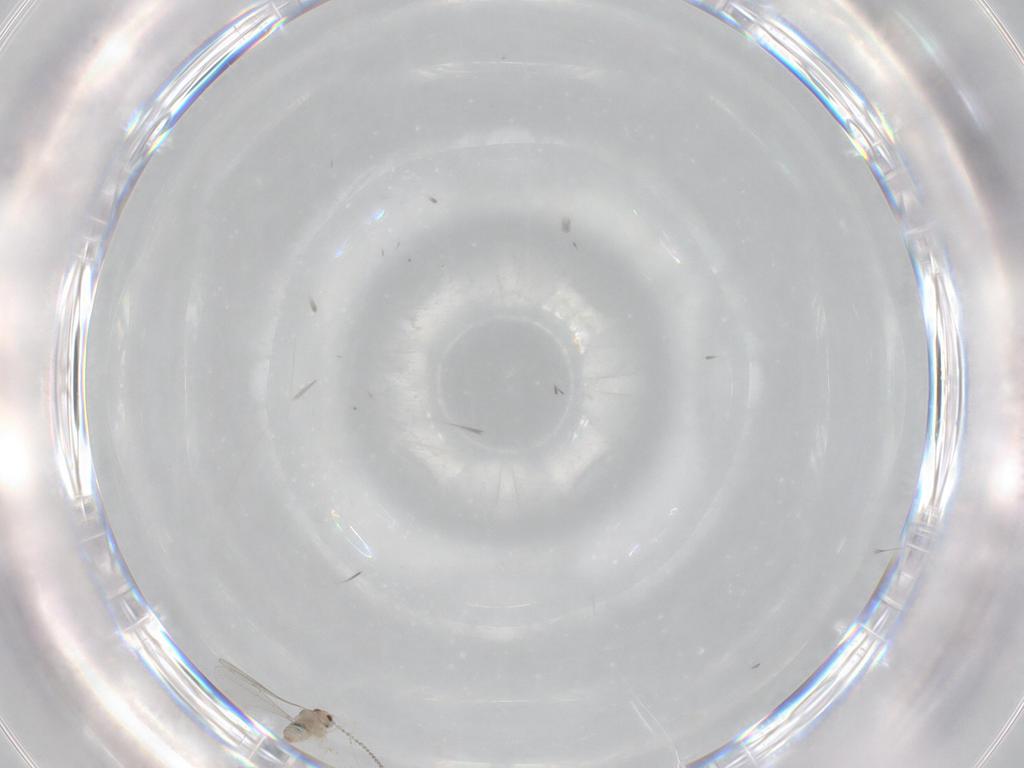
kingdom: Animalia
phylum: Arthropoda
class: Insecta
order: Diptera
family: Cecidomyiidae
